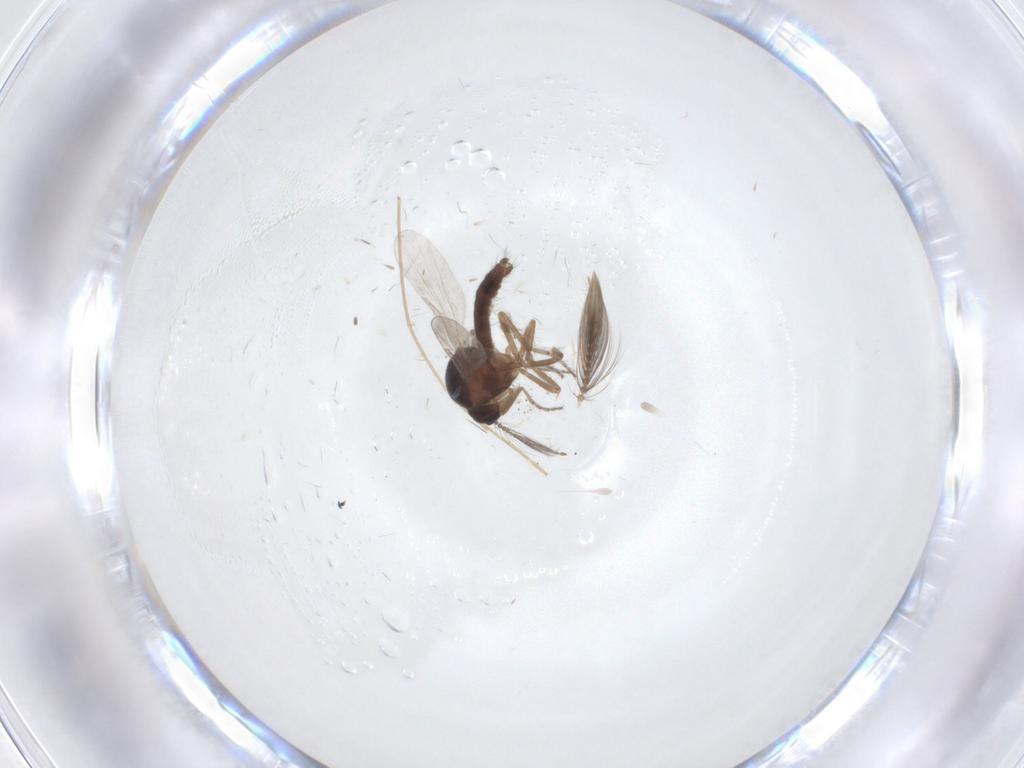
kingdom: Animalia
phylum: Arthropoda
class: Insecta
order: Diptera
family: Ceratopogonidae
